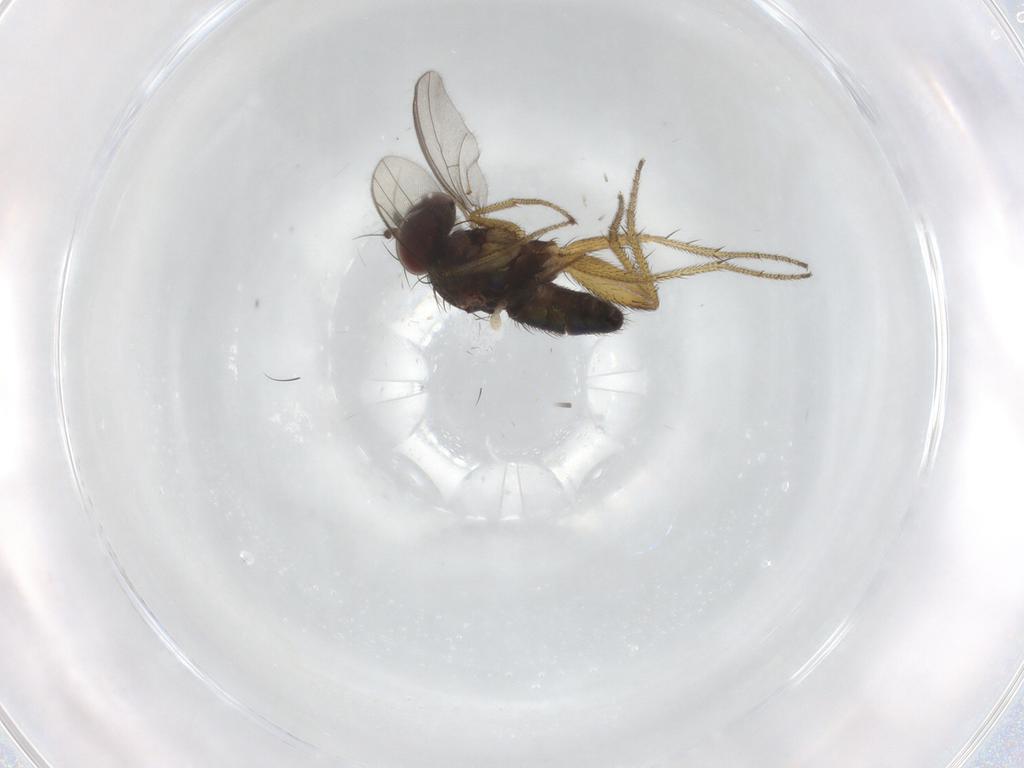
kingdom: Animalia
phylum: Arthropoda
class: Insecta
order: Diptera
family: Chironomidae
